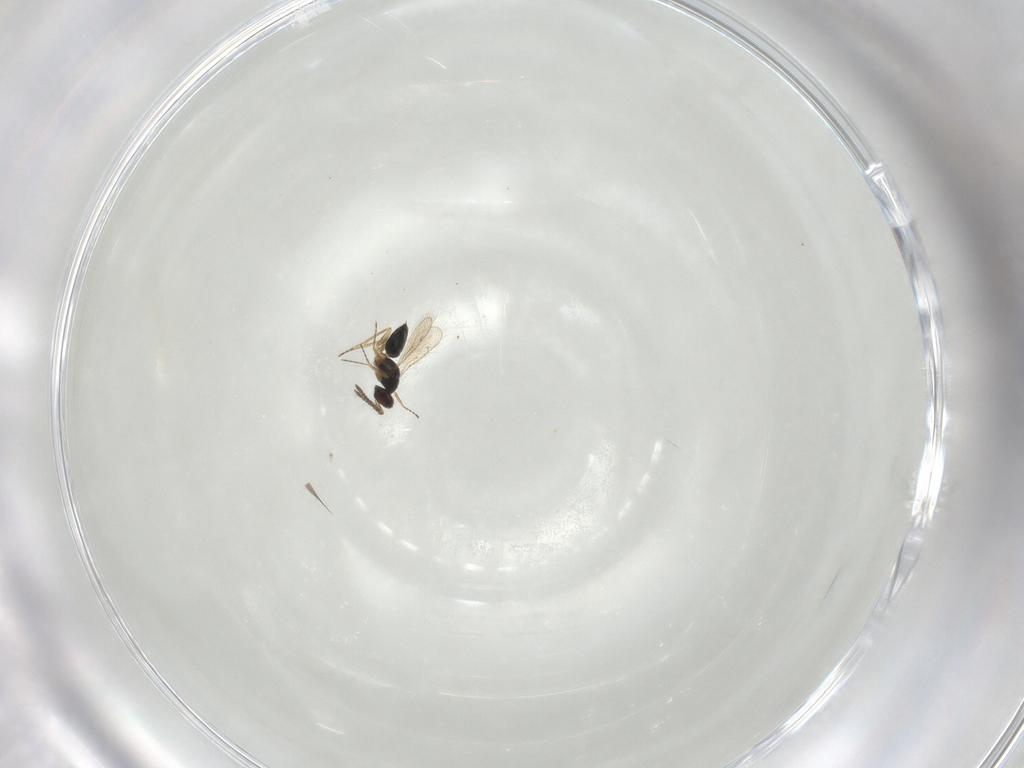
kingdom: Animalia
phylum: Arthropoda
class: Insecta
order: Hymenoptera
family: Tetracampidae
